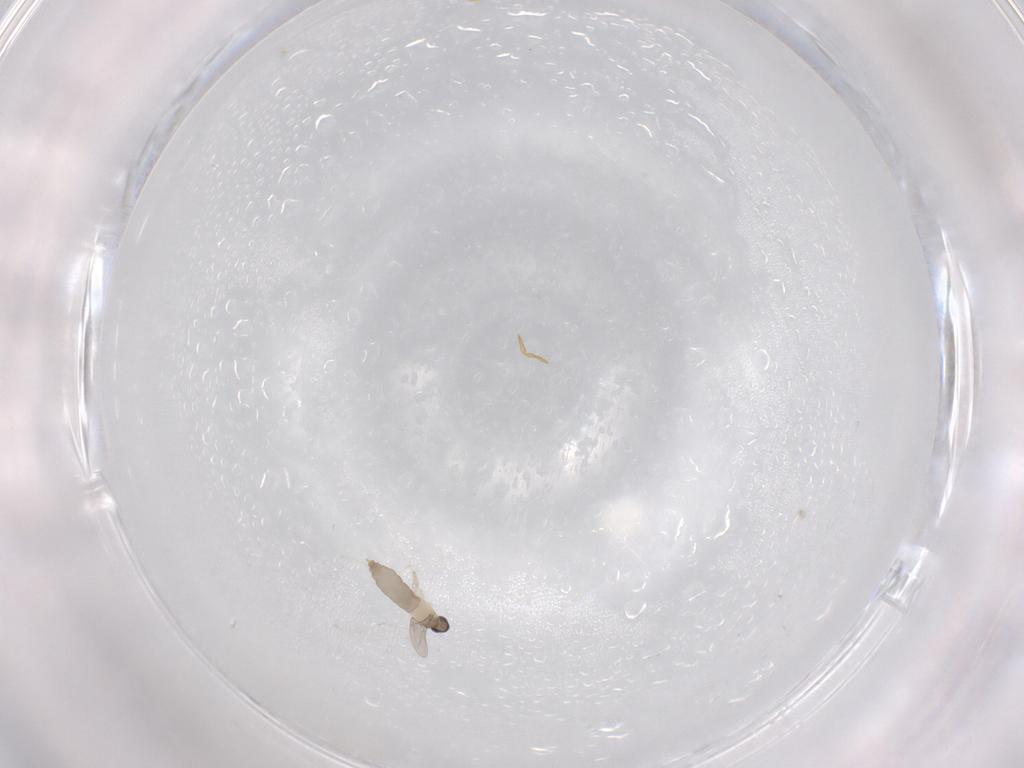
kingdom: Animalia
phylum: Arthropoda
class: Insecta
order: Diptera
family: Cecidomyiidae
